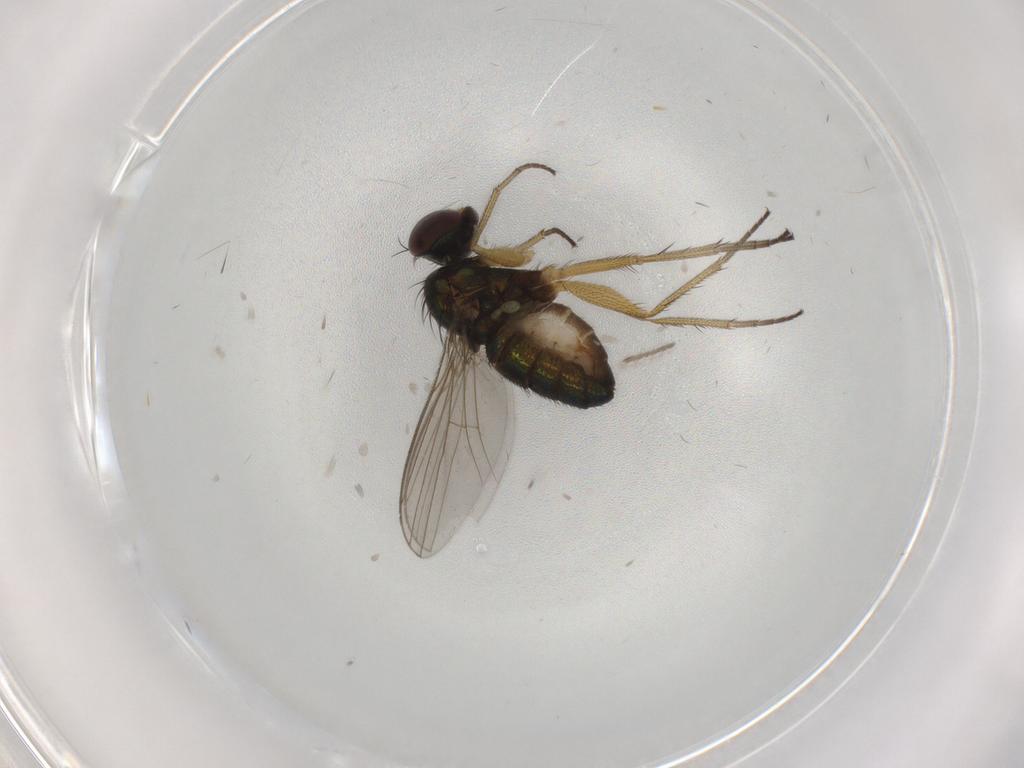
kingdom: Animalia
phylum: Arthropoda
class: Insecta
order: Diptera
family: Dolichopodidae
